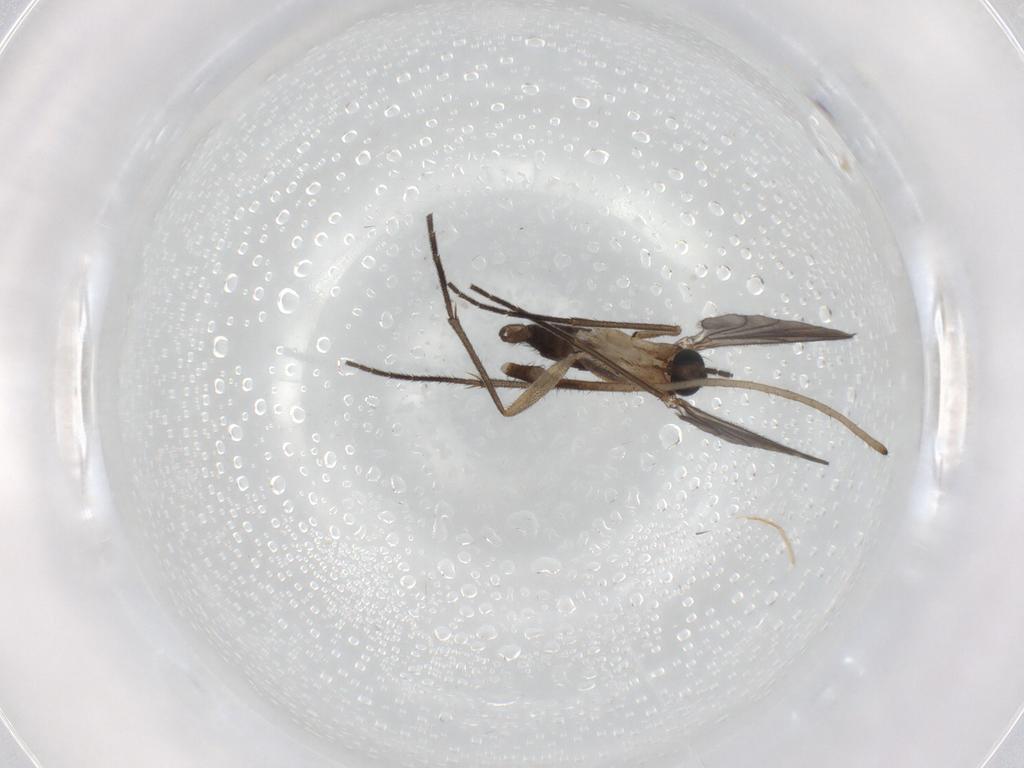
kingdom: Animalia
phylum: Arthropoda
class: Insecta
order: Diptera
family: Tipulidae
